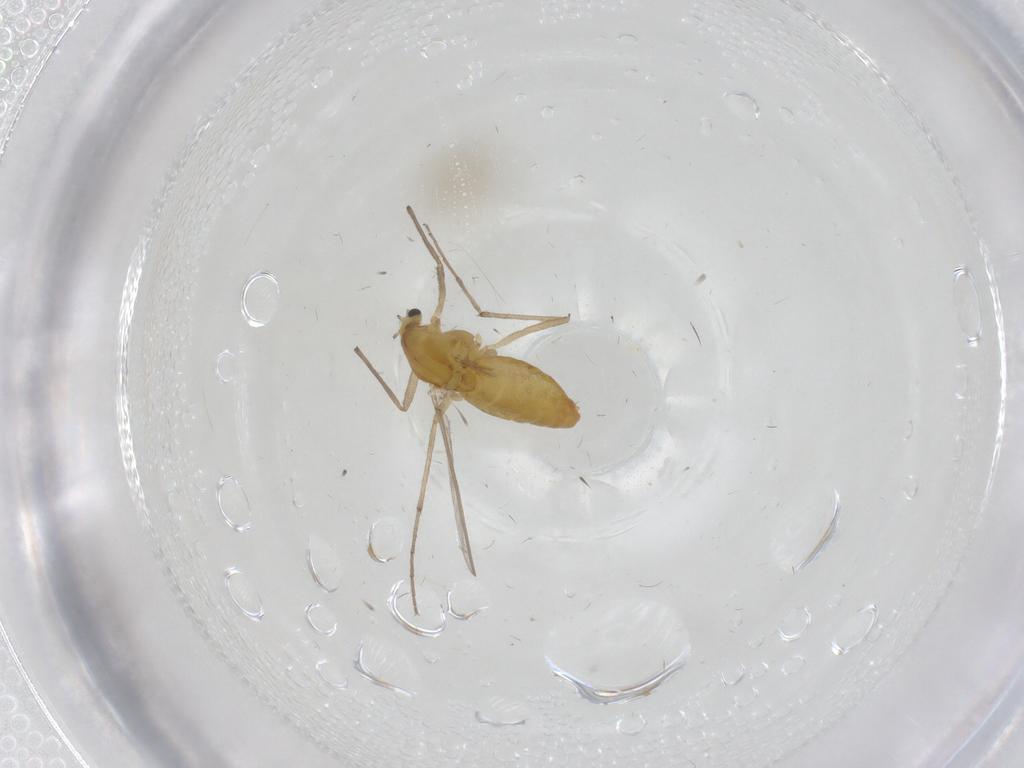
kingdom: Animalia
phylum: Arthropoda
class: Insecta
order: Diptera
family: Chironomidae
